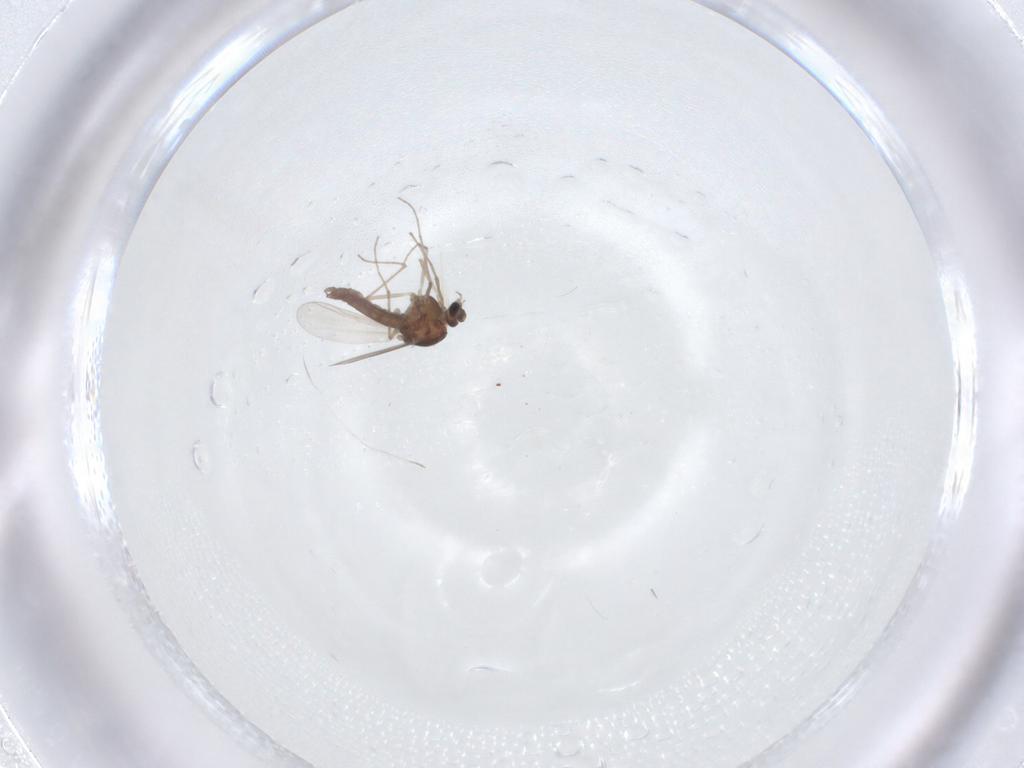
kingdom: Animalia
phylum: Arthropoda
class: Insecta
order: Diptera
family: Chironomidae
